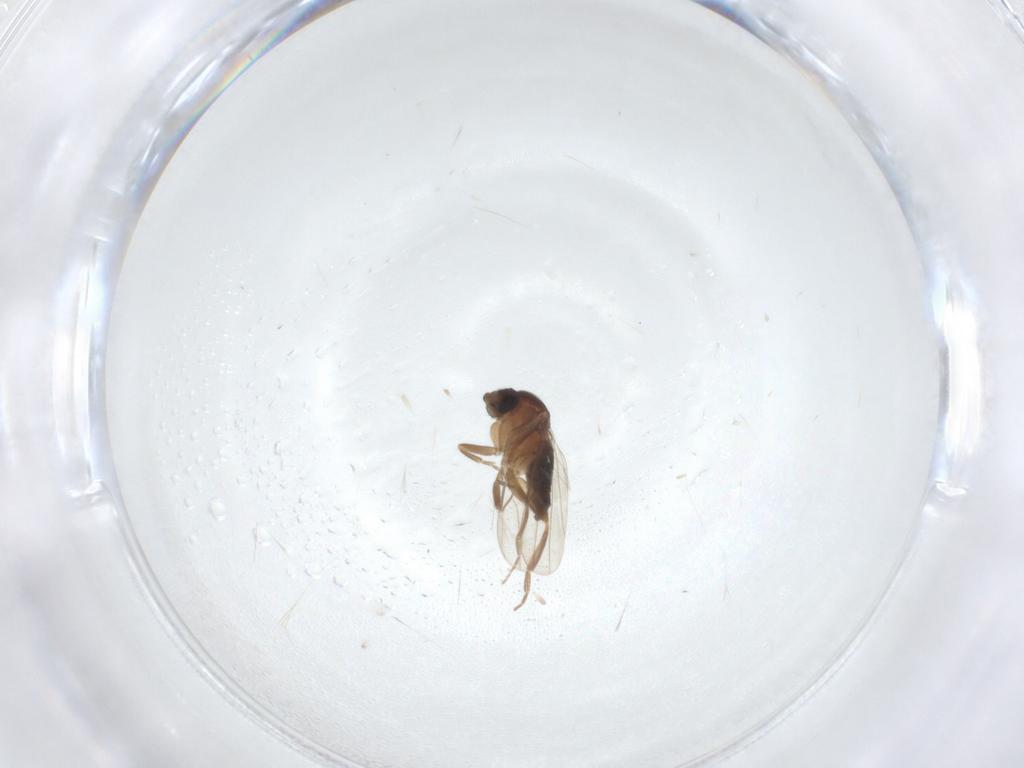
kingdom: Animalia
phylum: Arthropoda
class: Insecta
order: Diptera
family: Phoridae
